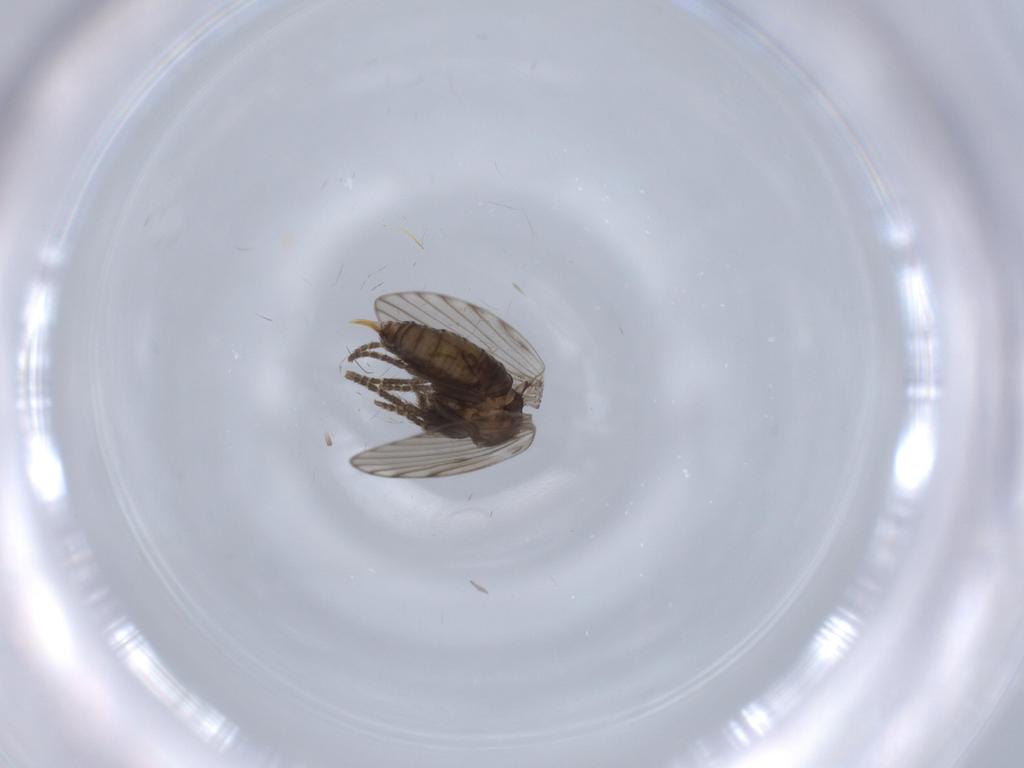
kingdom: Animalia
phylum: Arthropoda
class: Insecta
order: Diptera
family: Psychodidae
